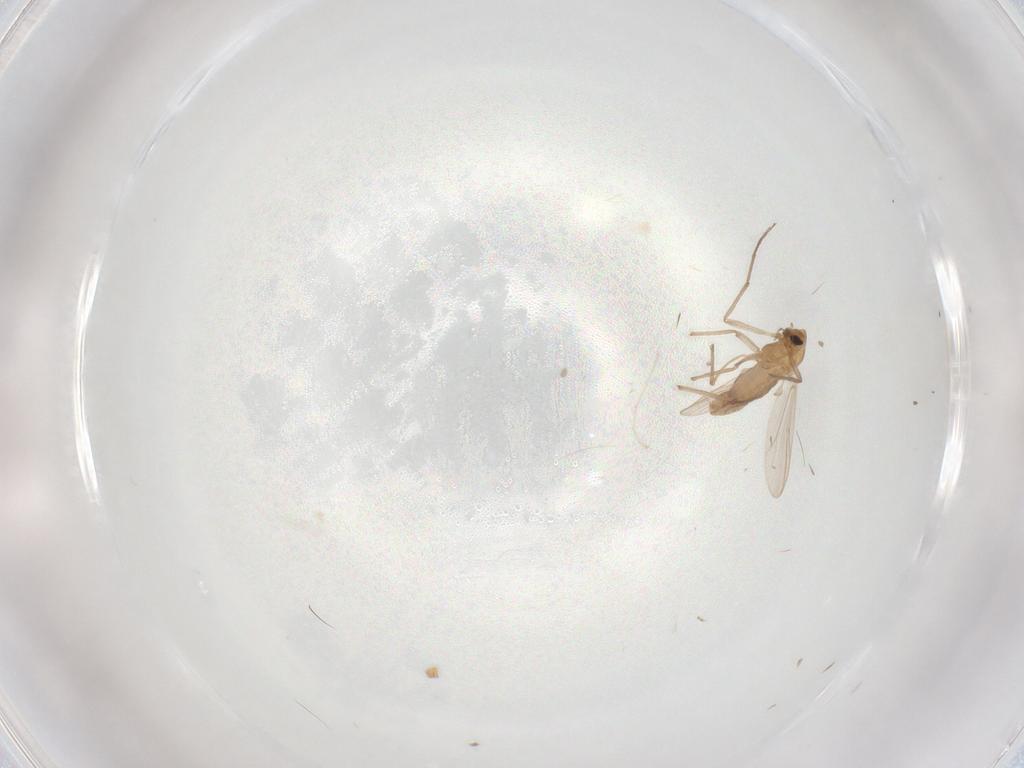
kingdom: Animalia
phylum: Arthropoda
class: Insecta
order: Diptera
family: Cecidomyiidae
